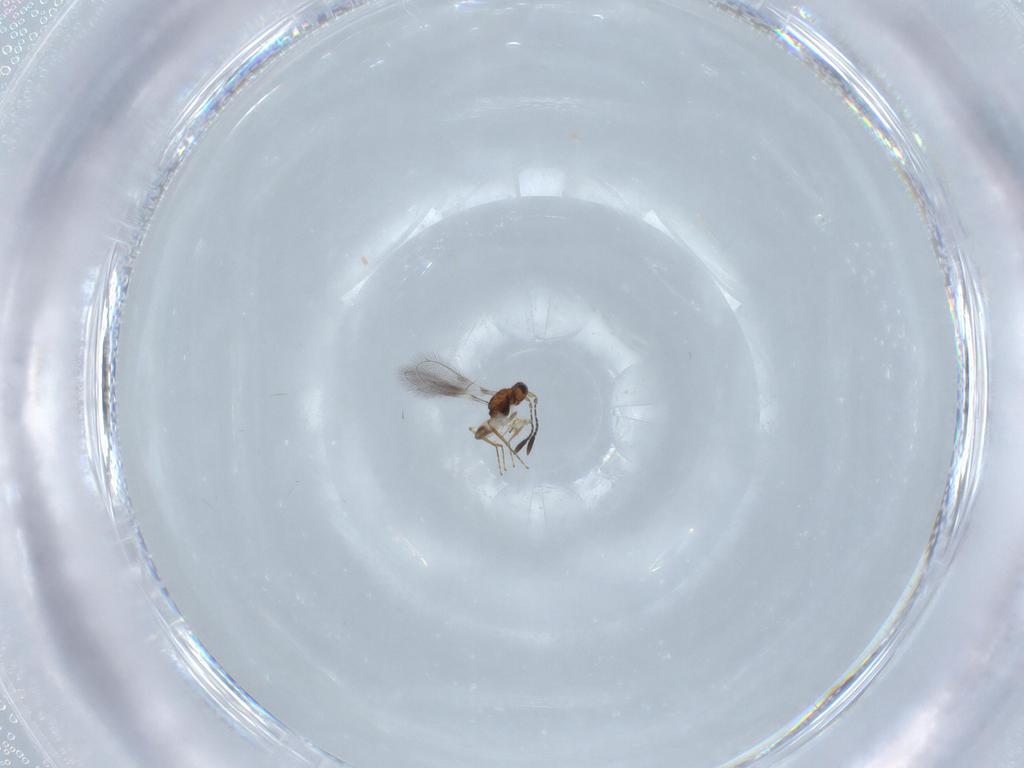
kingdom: Animalia
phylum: Arthropoda
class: Insecta
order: Hymenoptera
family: Mymaridae
